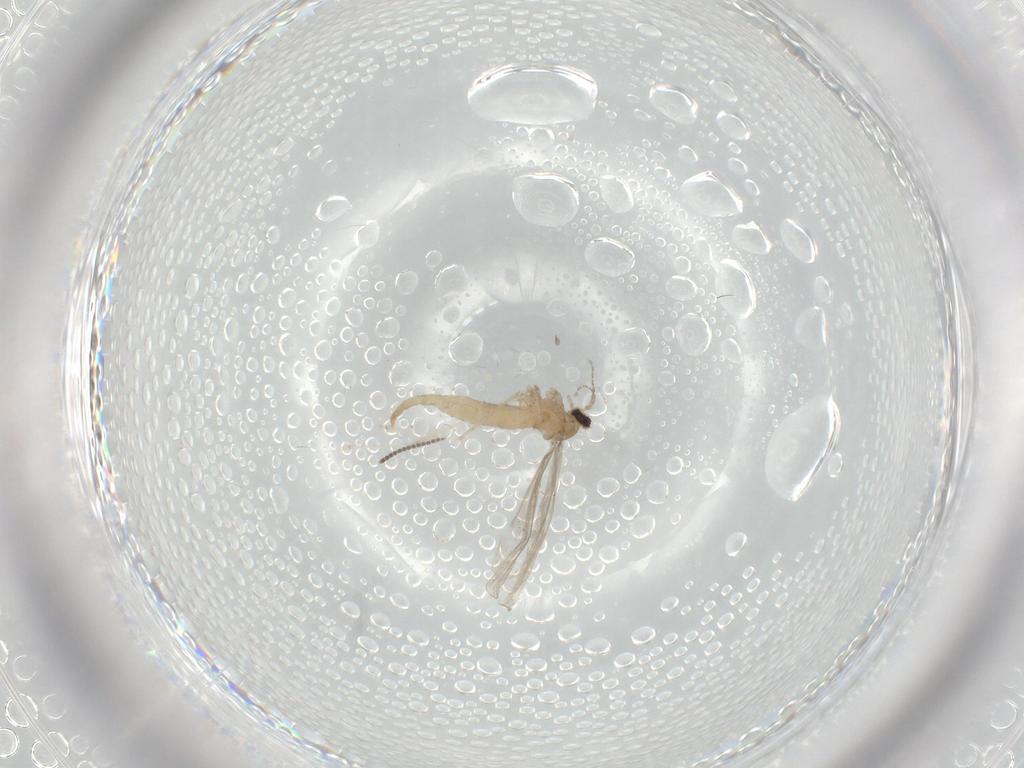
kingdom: Animalia
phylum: Arthropoda
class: Insecta
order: Diptera
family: Cecidomyiidae
